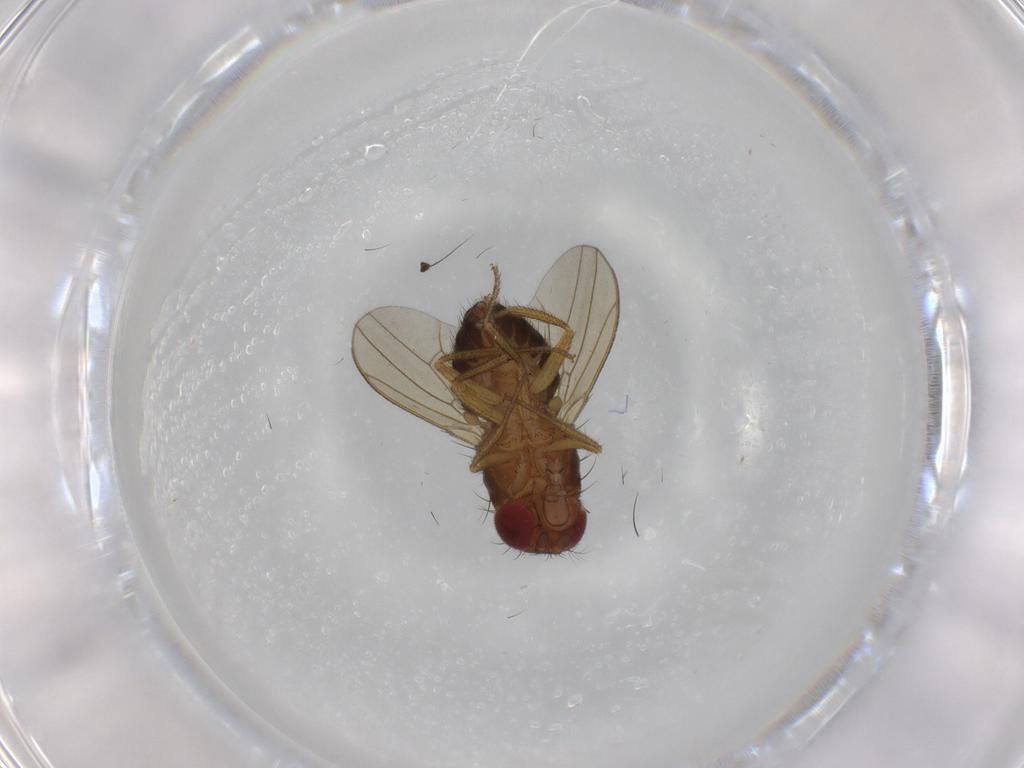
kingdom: Animalia
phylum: Arthropoda
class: Insecta
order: Diptera
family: Drosophilidae
